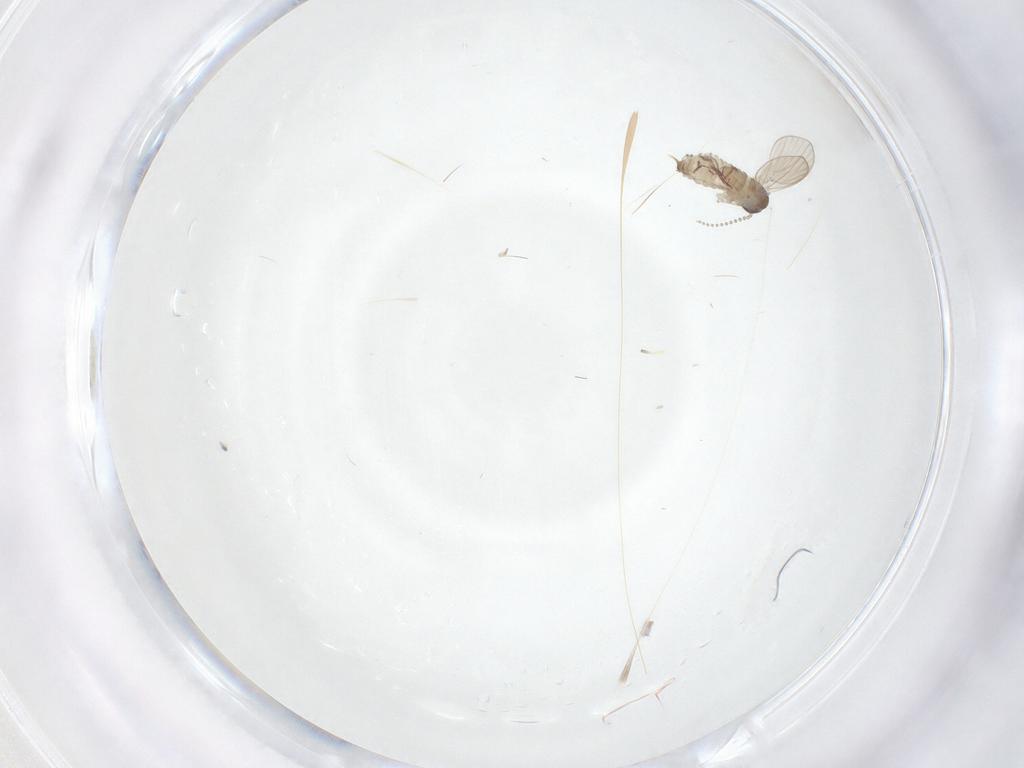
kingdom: Animalia
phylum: Arthropoda
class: Insecta
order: Diptera
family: Psychodidae
